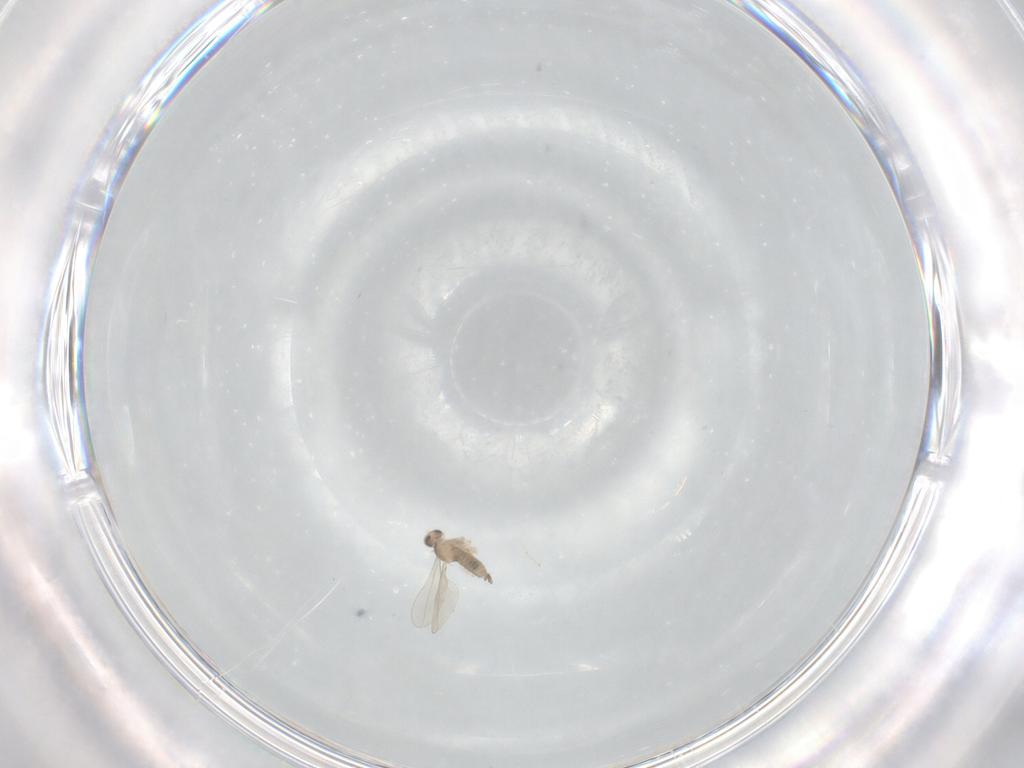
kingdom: Animalia
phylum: Arthropoda
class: Insecta
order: Diptera
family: Cecidomyiidae
